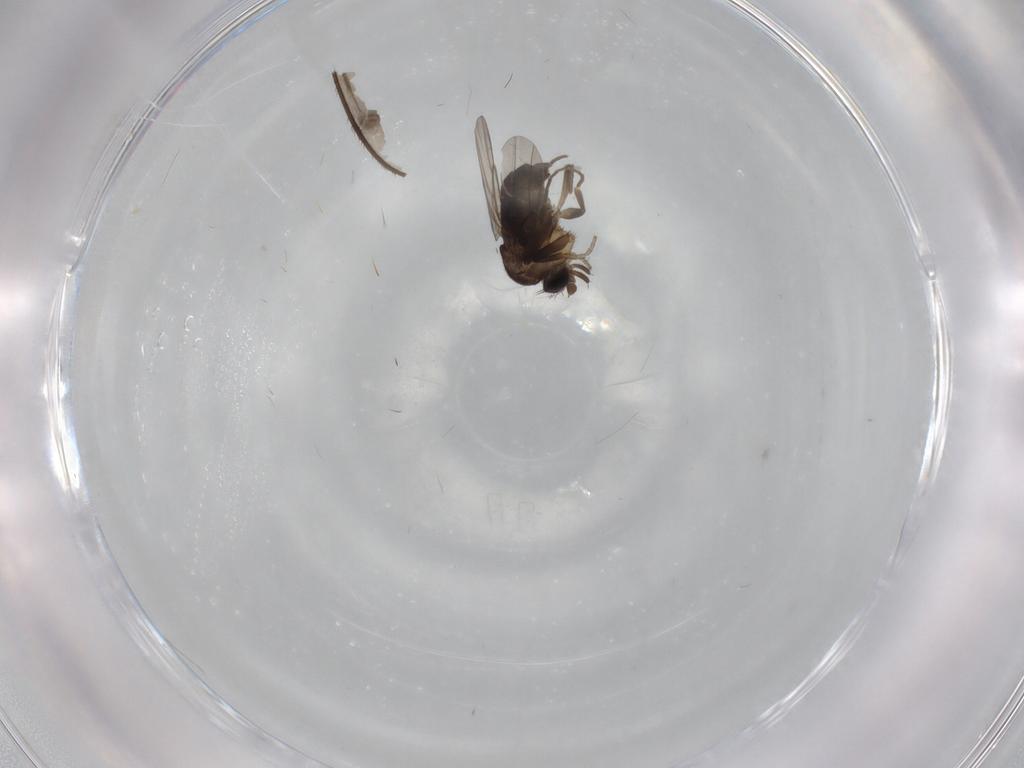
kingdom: Animalia
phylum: Arthropoda
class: Insecta
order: Diptera
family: Phoridae
